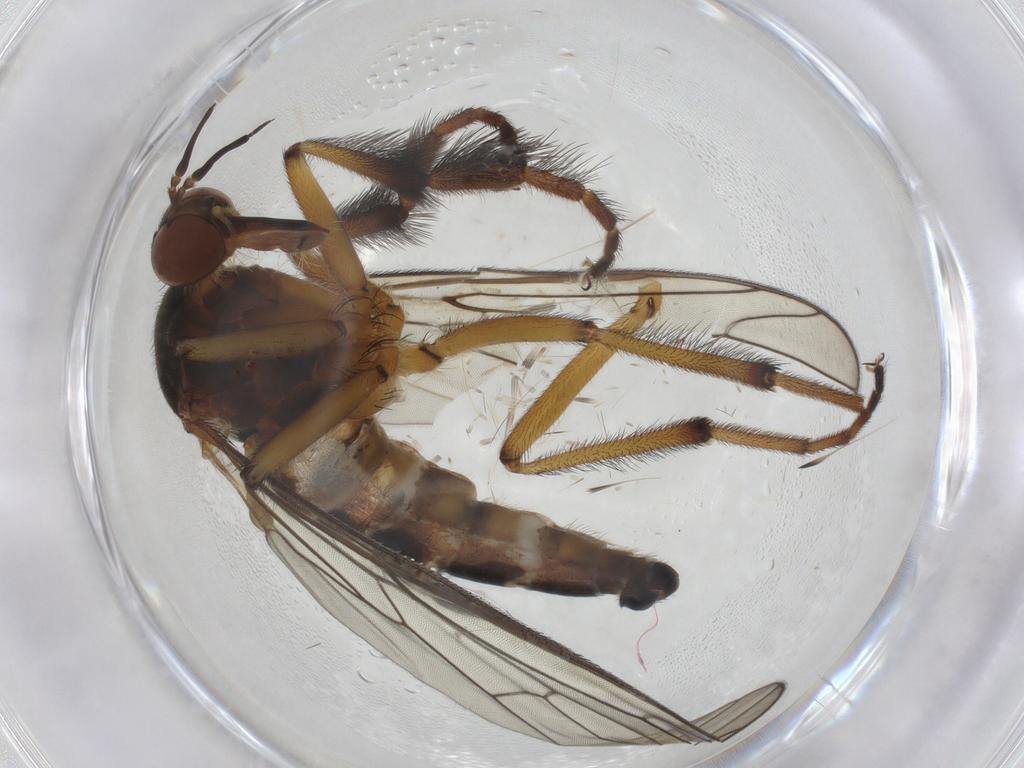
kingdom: Animalia
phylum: Arthropoda
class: Insecta
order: Diptera
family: Empididae
